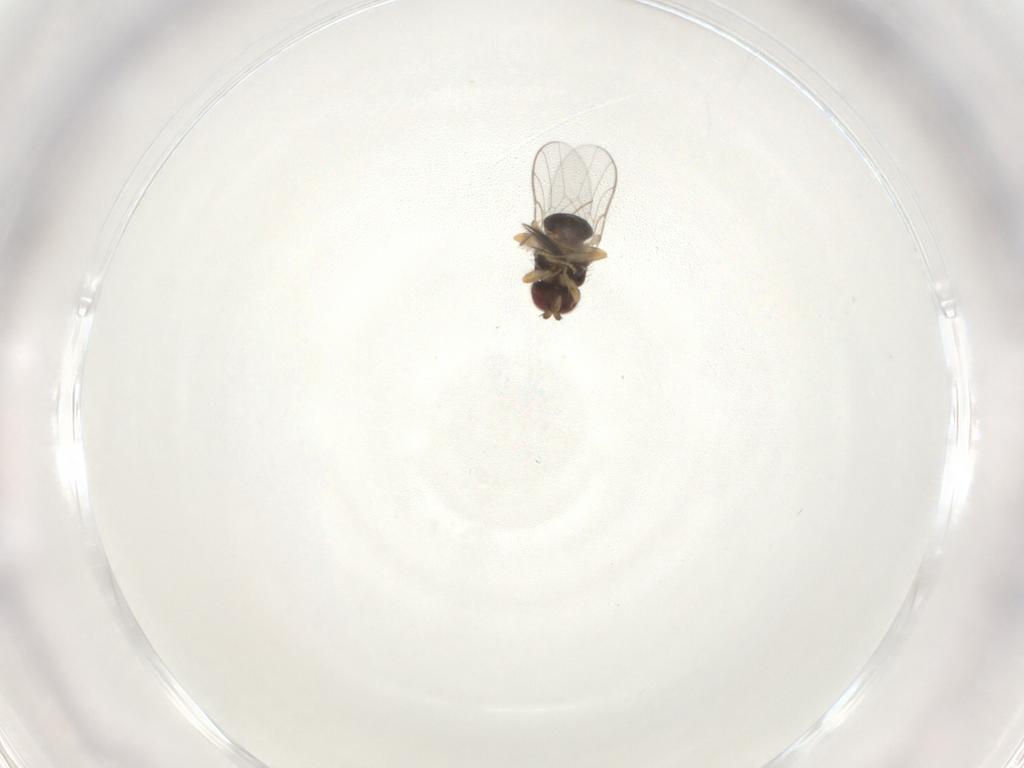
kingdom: Animalia
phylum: Arthropoda
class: Insecta
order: Diptera
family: Chloropidae
